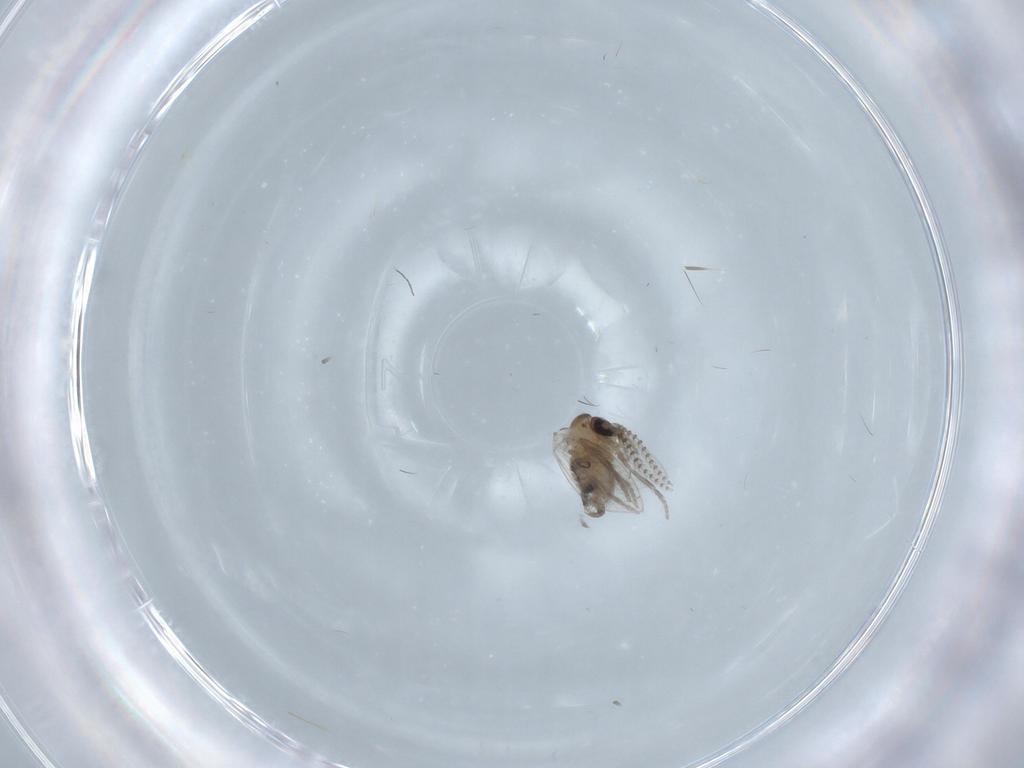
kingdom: Animalia
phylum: Arthropoda
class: Insecta
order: Diptera
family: Psychodidae
